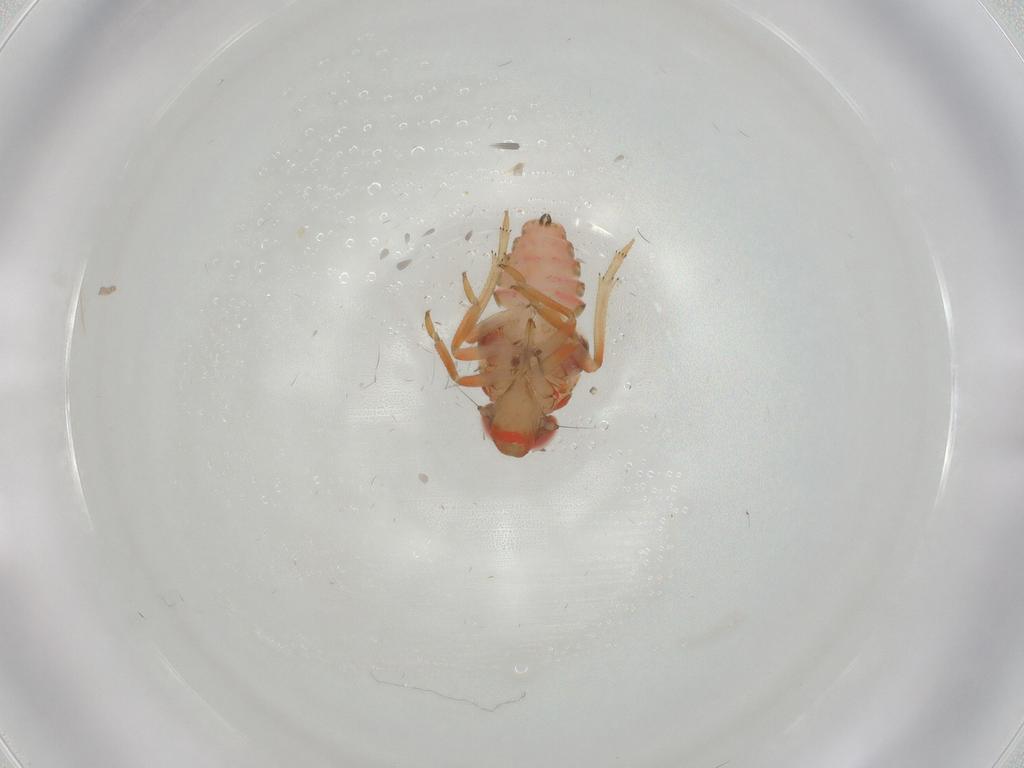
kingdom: Animalia
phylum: Arthropoda
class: Insecta
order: Hemiptera
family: Issidae
